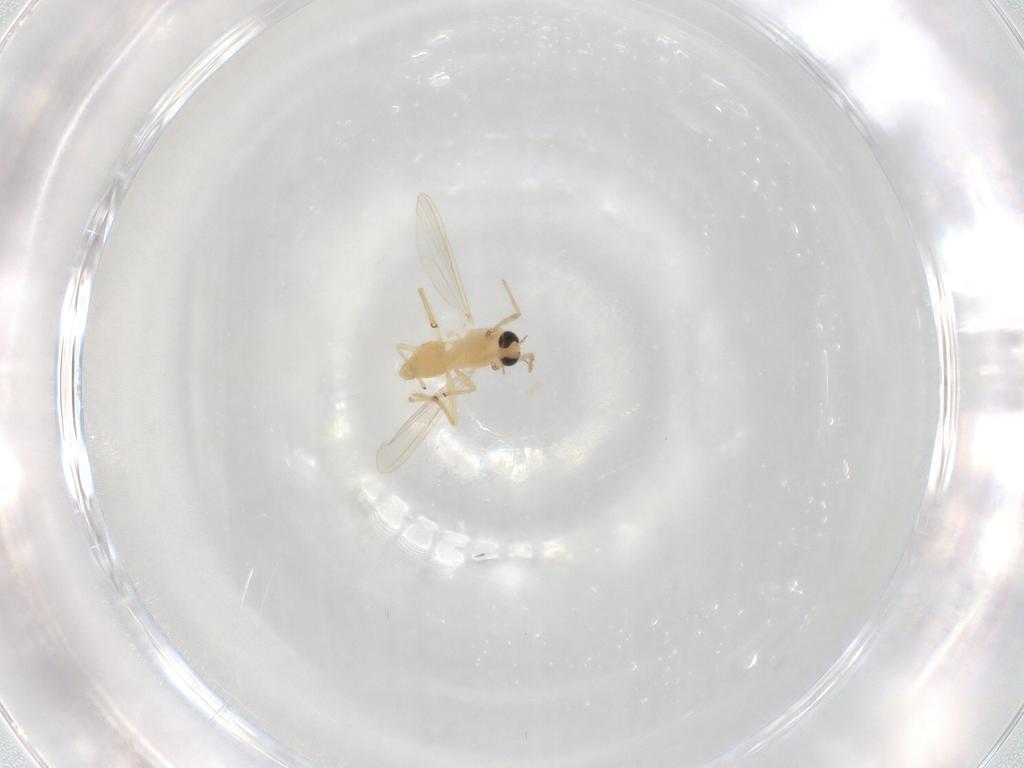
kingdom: Animalia
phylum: Arthropoda
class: Insecta
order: Diptera
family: Chironomidae
